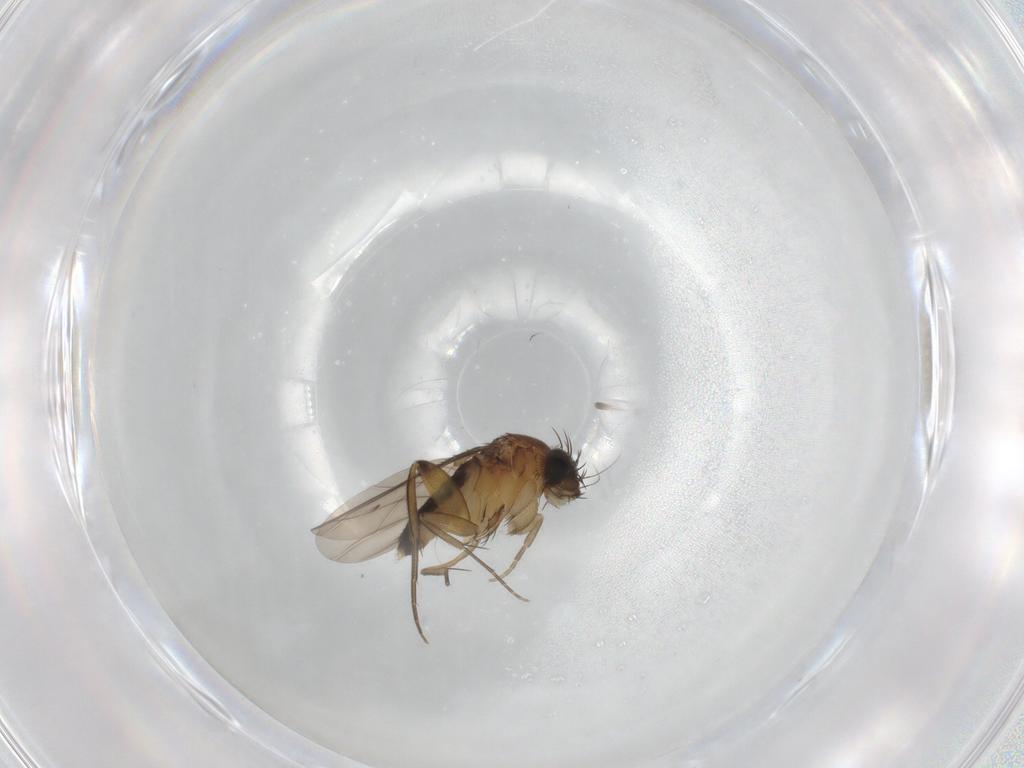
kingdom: Animalia
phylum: Arthropoda
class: Insecta
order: Diptera
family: Phoridae
